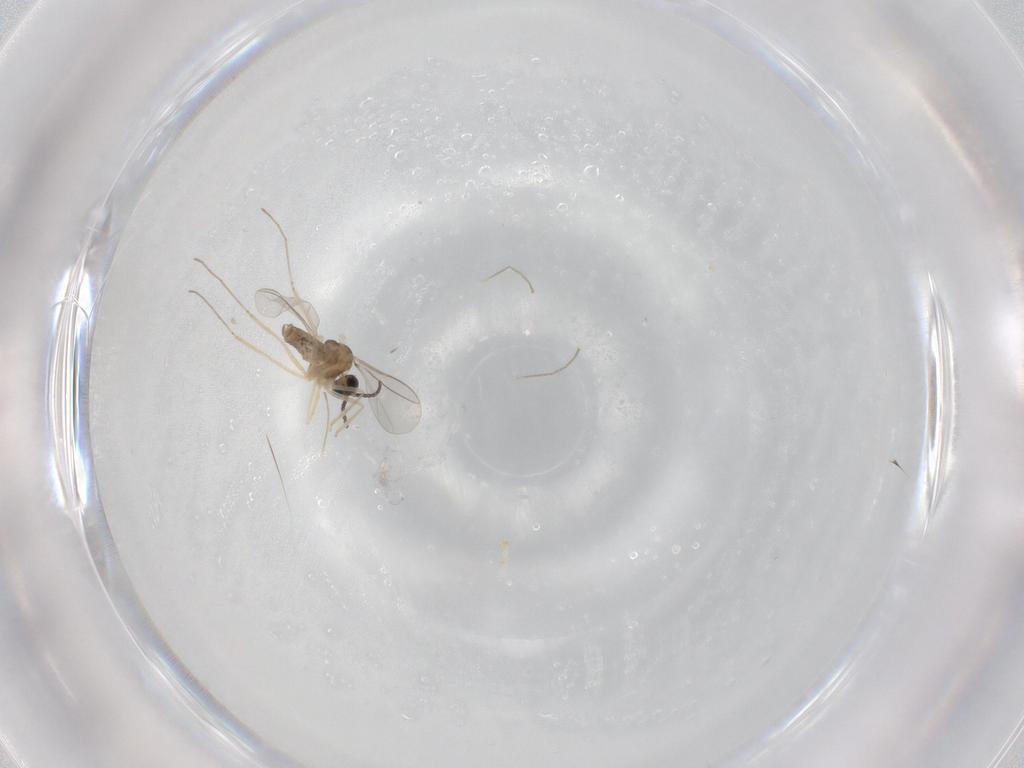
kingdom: Animalia
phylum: Arthropoda
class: Insecta
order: Diptera
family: Cecidomyiidae
